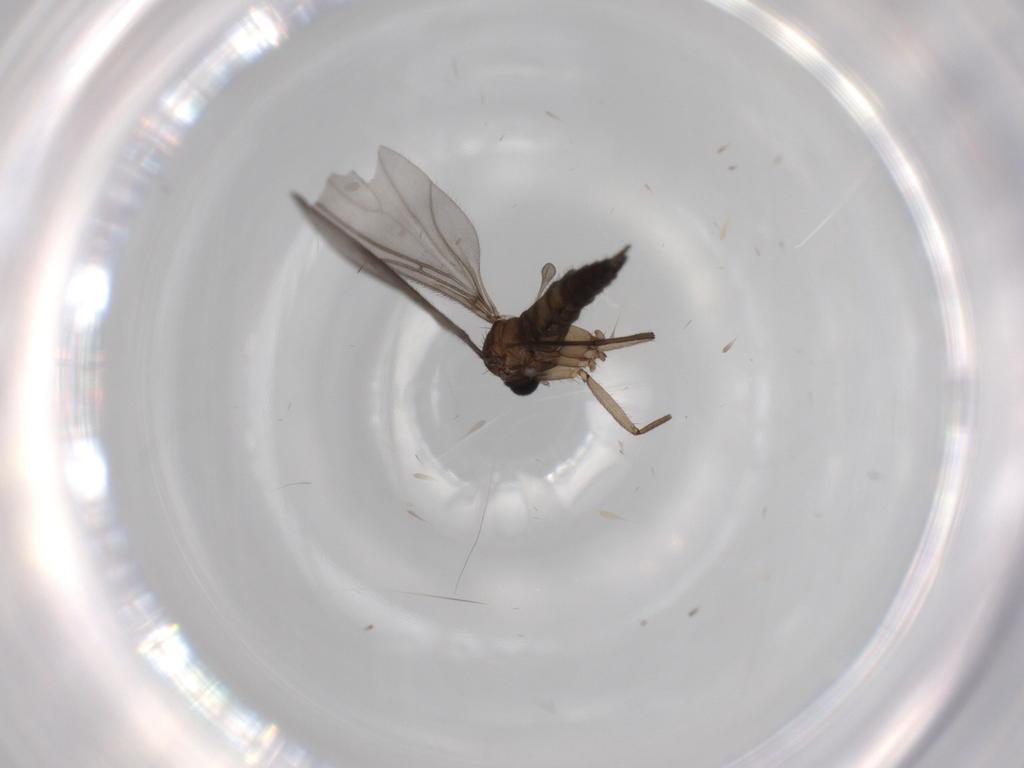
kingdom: Animalia
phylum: Arthropoda
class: Insecta
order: Diptera
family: Sciaridae
